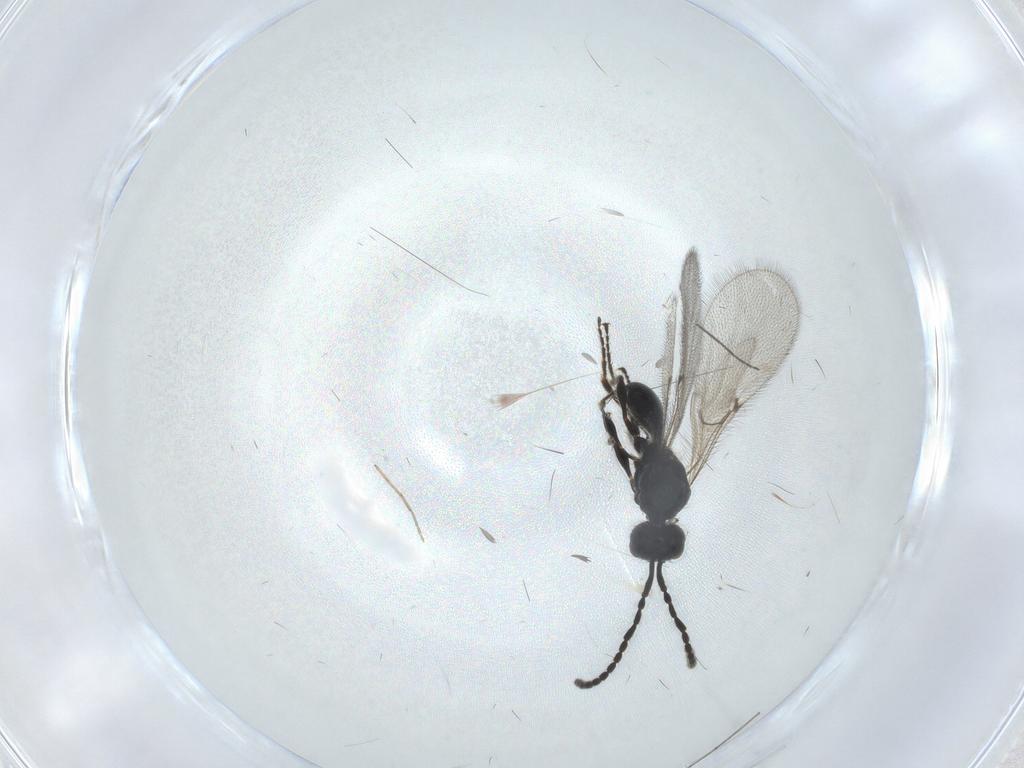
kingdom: Animalia
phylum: Arthropoda
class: Insecta
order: Hymenoptera
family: Diapriidae
